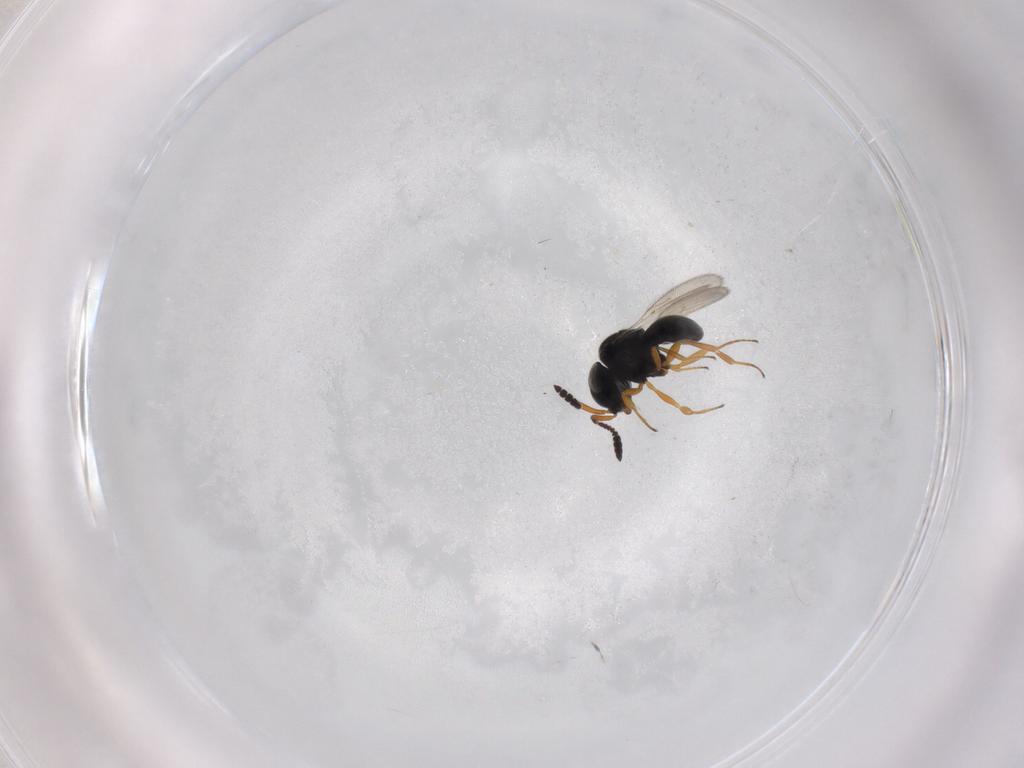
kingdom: Animalia
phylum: Arthropoda
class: Insecta
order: Hymenoptera
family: Scelionidae
